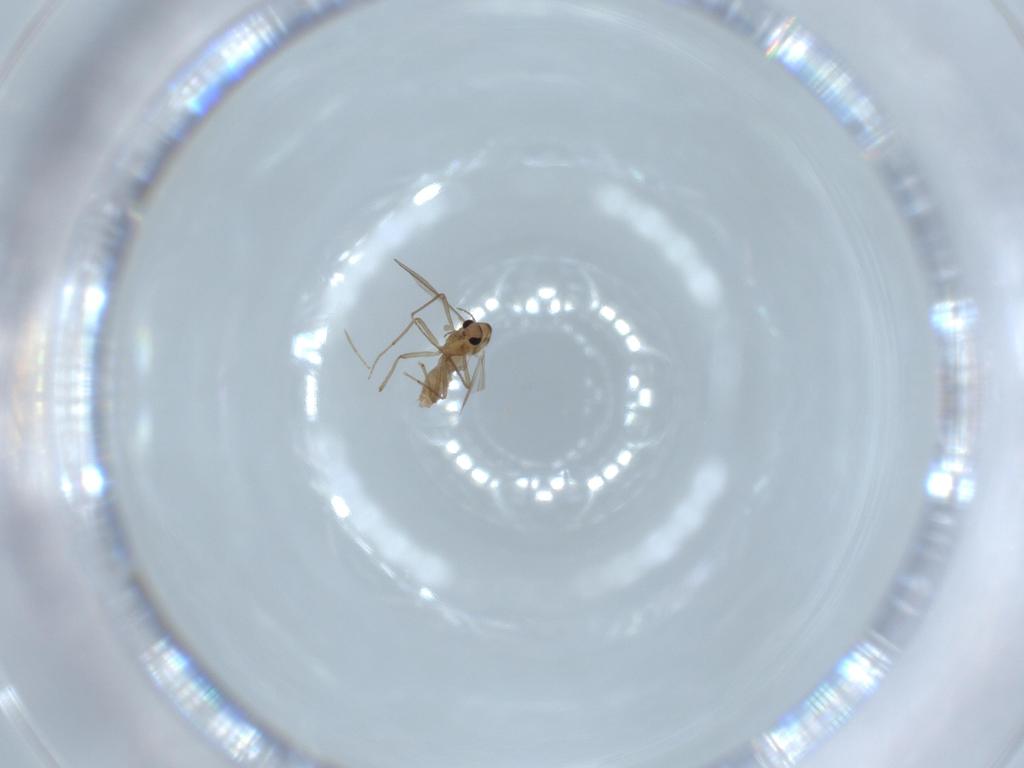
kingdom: Animalia
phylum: Arthropoda
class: Insecta
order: Diptera
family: Chironomidae
